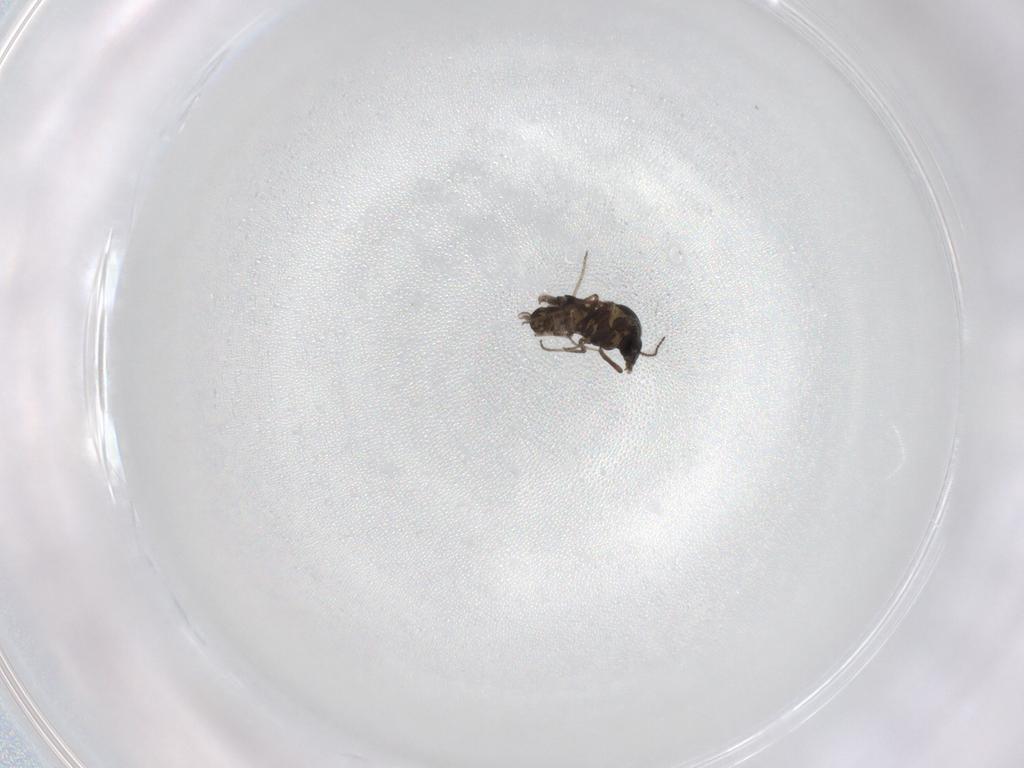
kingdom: Animalia
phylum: Arthropoda
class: Insecta
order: Diptera
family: Ceratopogonidae
